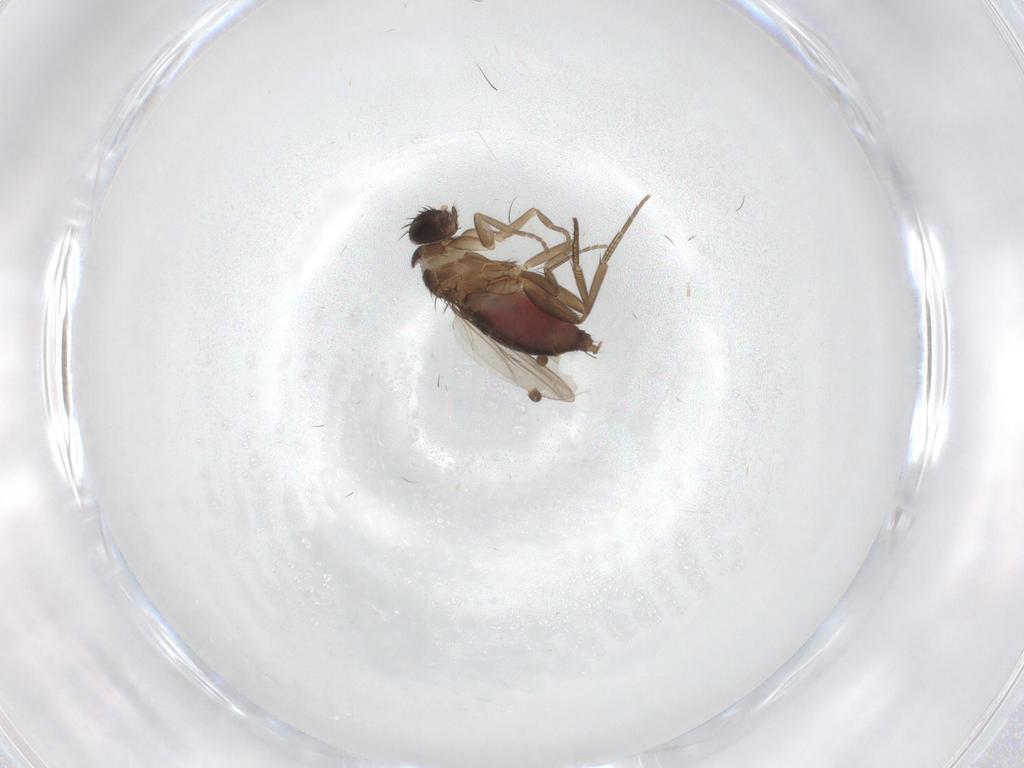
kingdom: Animalia
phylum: Arthropoda
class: Insecta
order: Diptera
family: Phoridae
